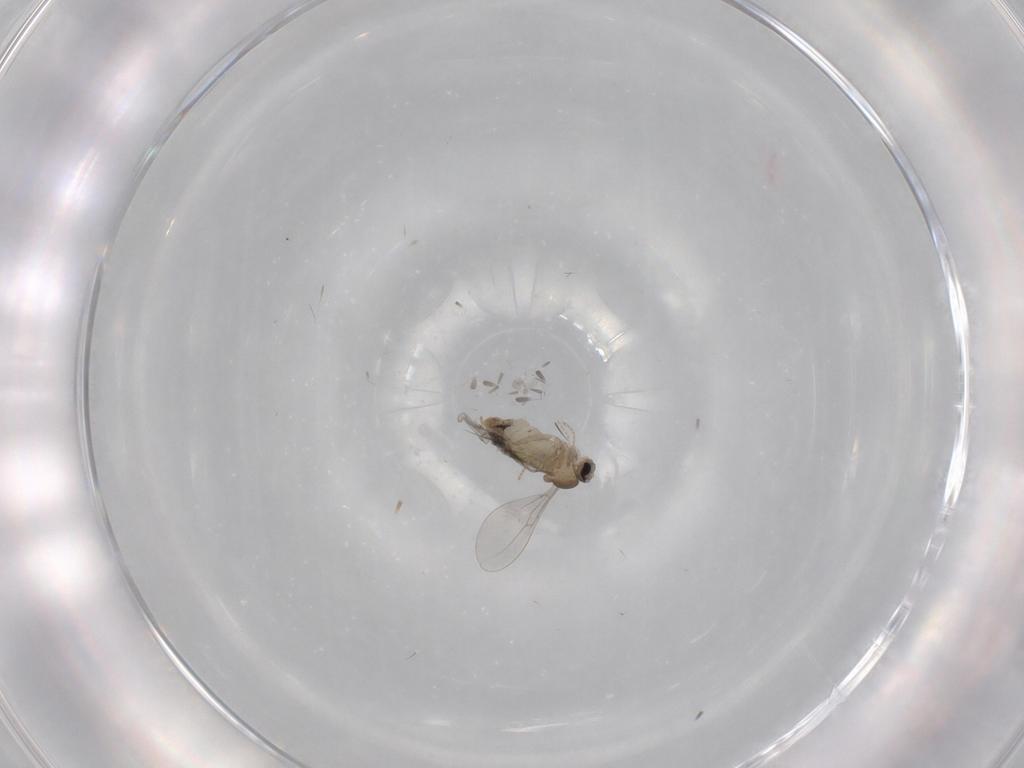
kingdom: Animalia
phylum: Arthropoda
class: Insecta
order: Diptera
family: Cecidomyiidae
